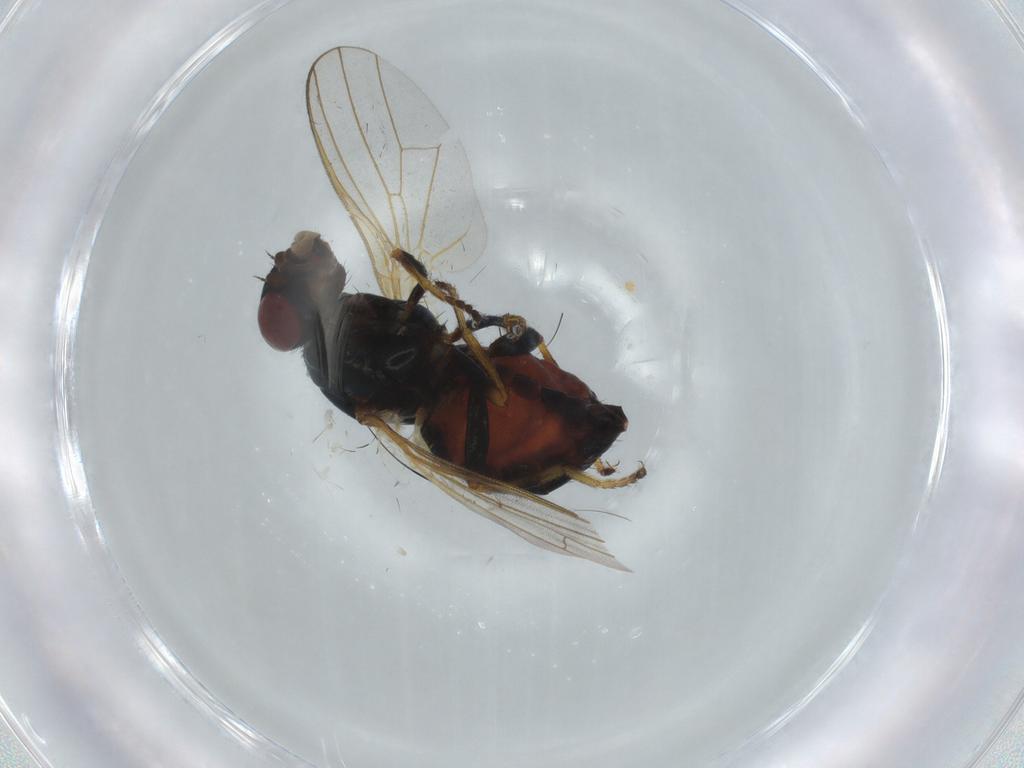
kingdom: Animalia
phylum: Arthropoda
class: Insecta
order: Diptera
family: Piophilidae
